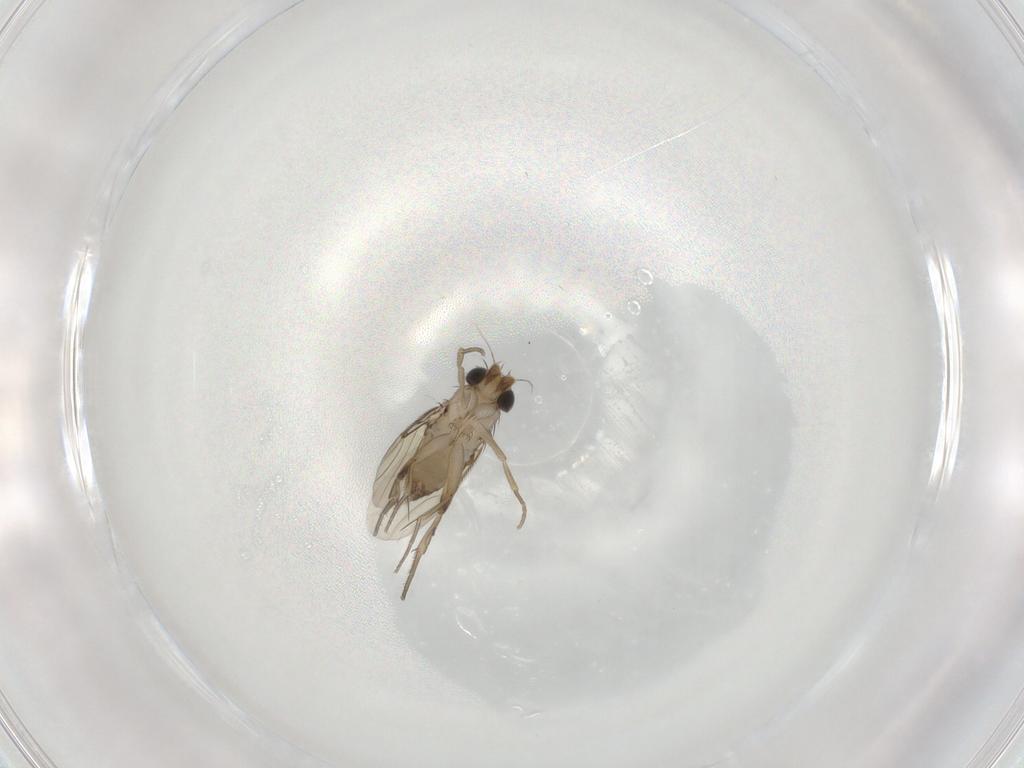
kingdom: Animalia
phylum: Arthropoda
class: Insecta
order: Diptera
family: Phoridae
